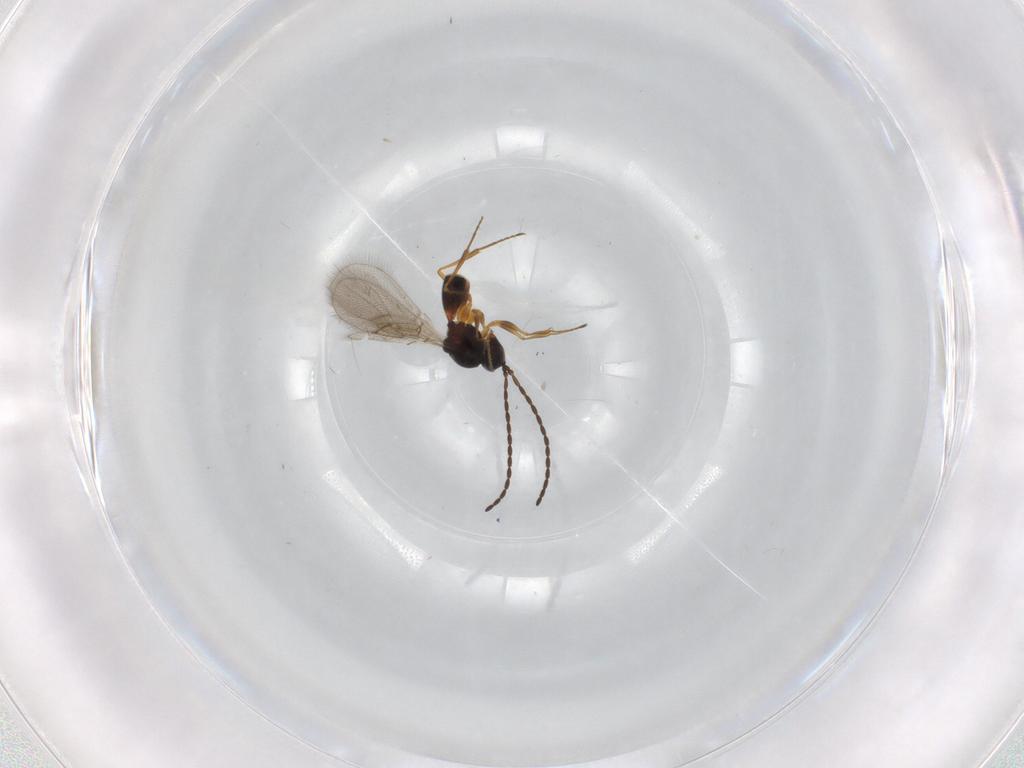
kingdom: Animalia
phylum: Arthropoda
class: Insecta
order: Hymenoptera
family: Figitidae
